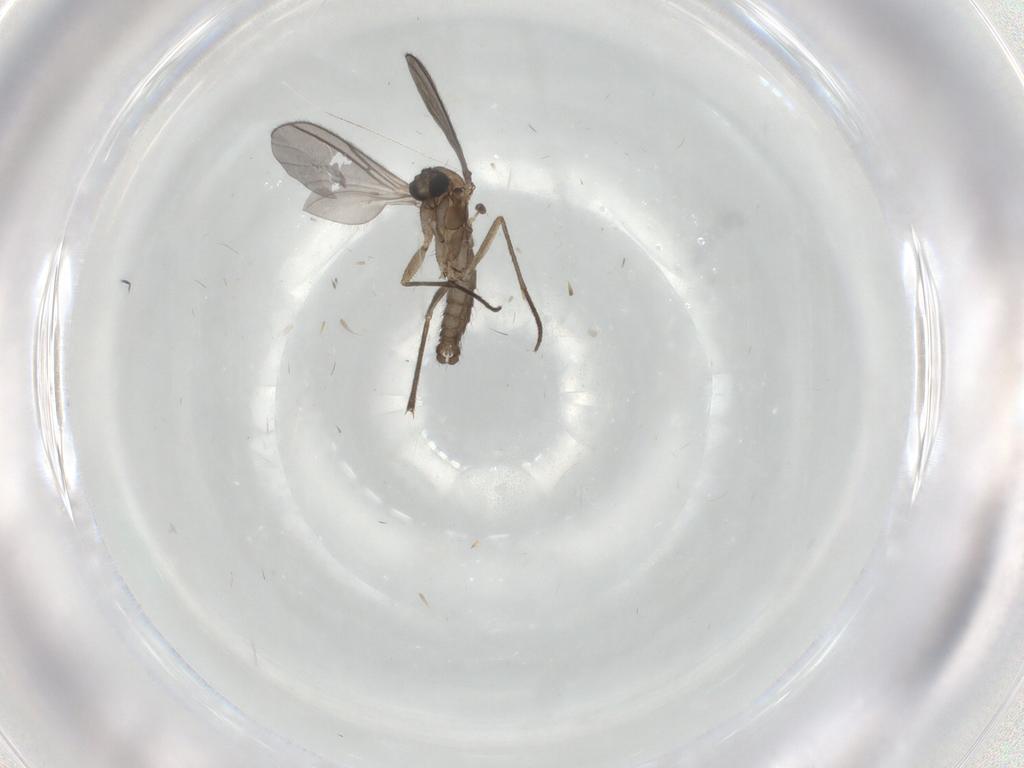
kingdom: Animalia
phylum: Arthropoda
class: Insecta
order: Diptera
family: Sciaridae
